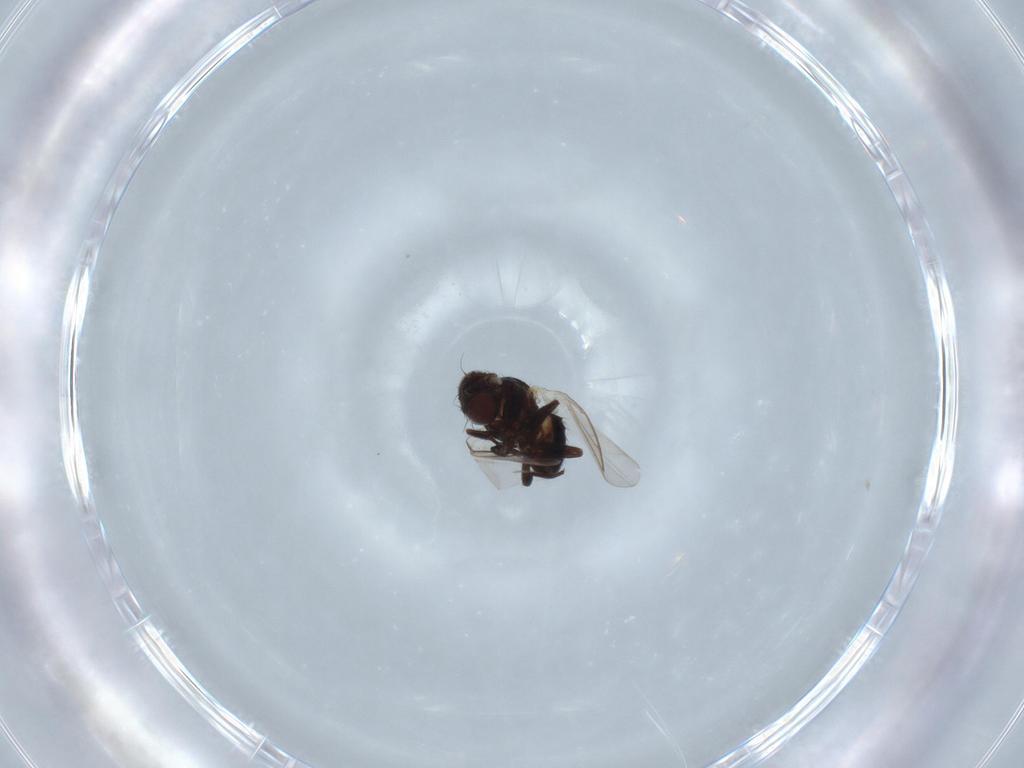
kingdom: Animalia
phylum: Arthropoda
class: Insecta
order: Diptera
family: Agromyzidae
